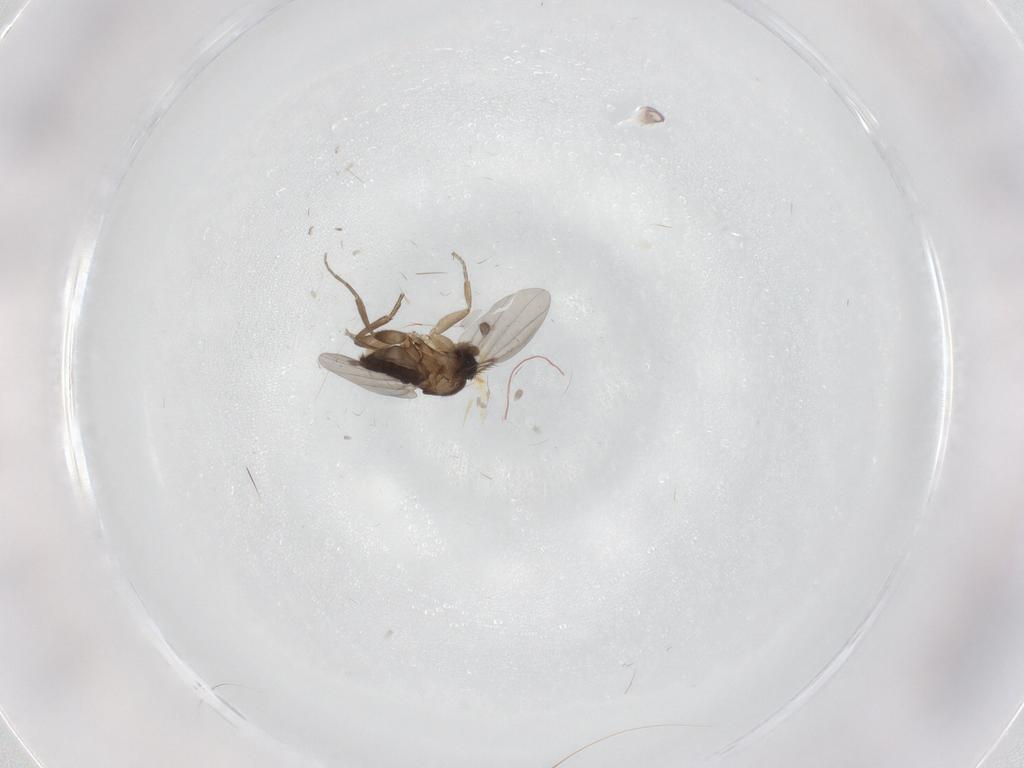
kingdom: Animalia
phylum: Arthropoda
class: Insecta
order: Diptera
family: Phoridae
